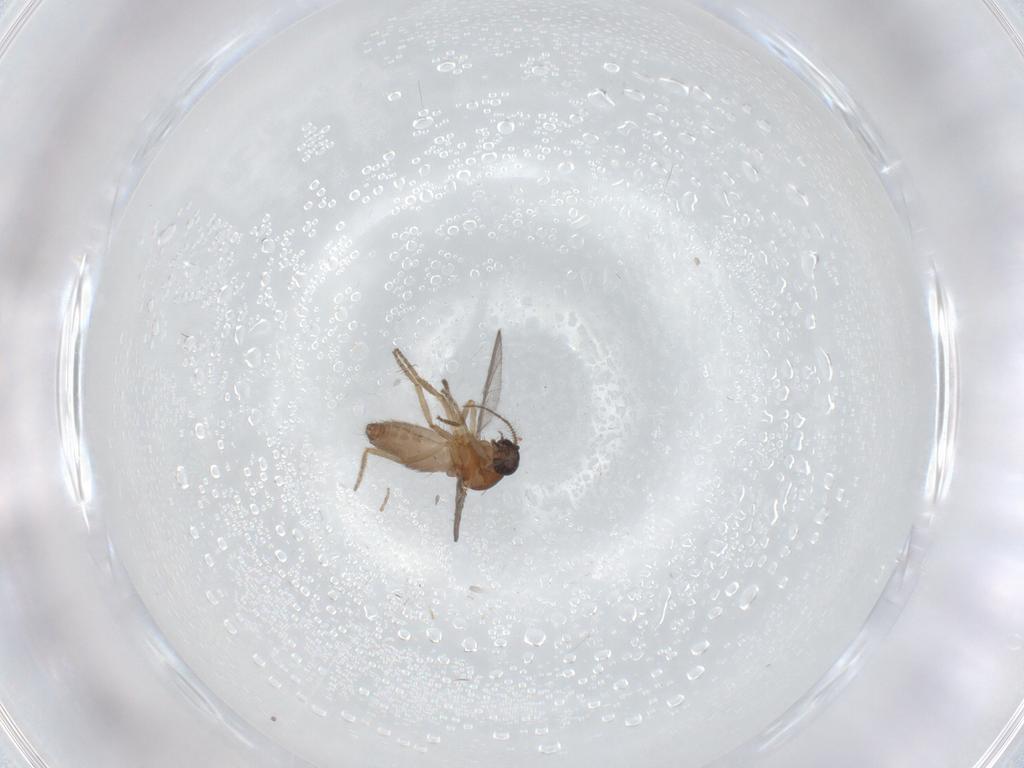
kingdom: Animalia
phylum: Arthropoda
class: Insecta
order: Diptera
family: Ceratopogonidae
